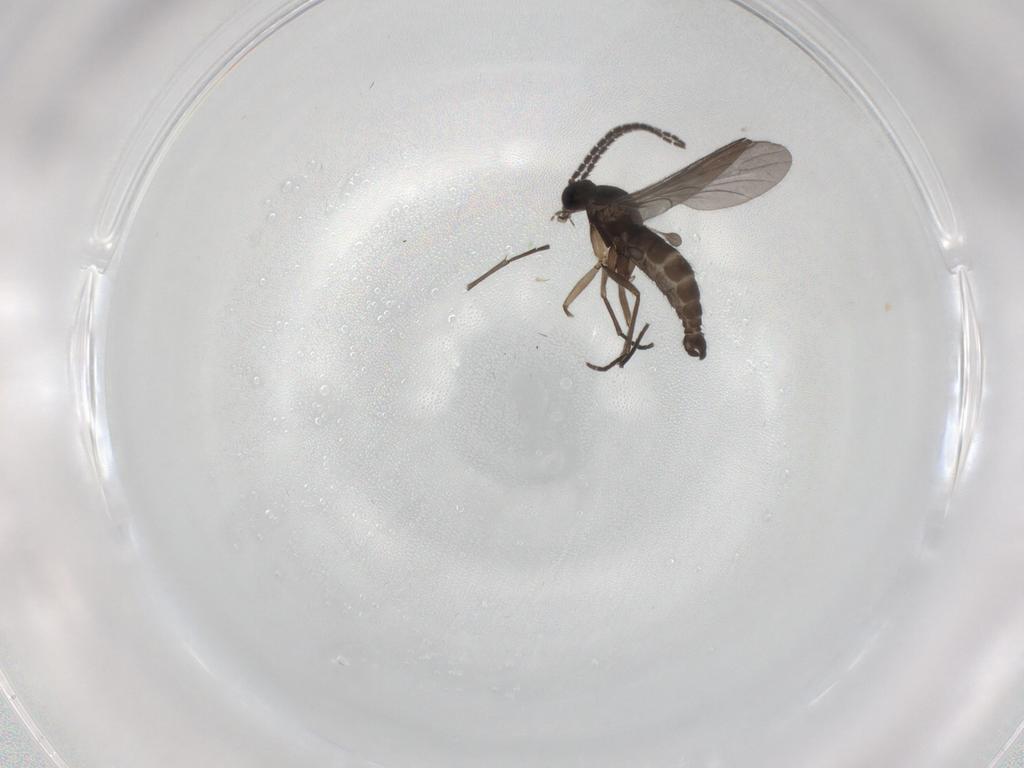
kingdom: Animalia
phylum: Arthropoda
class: Insecta
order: Diptera
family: Sciaridae
